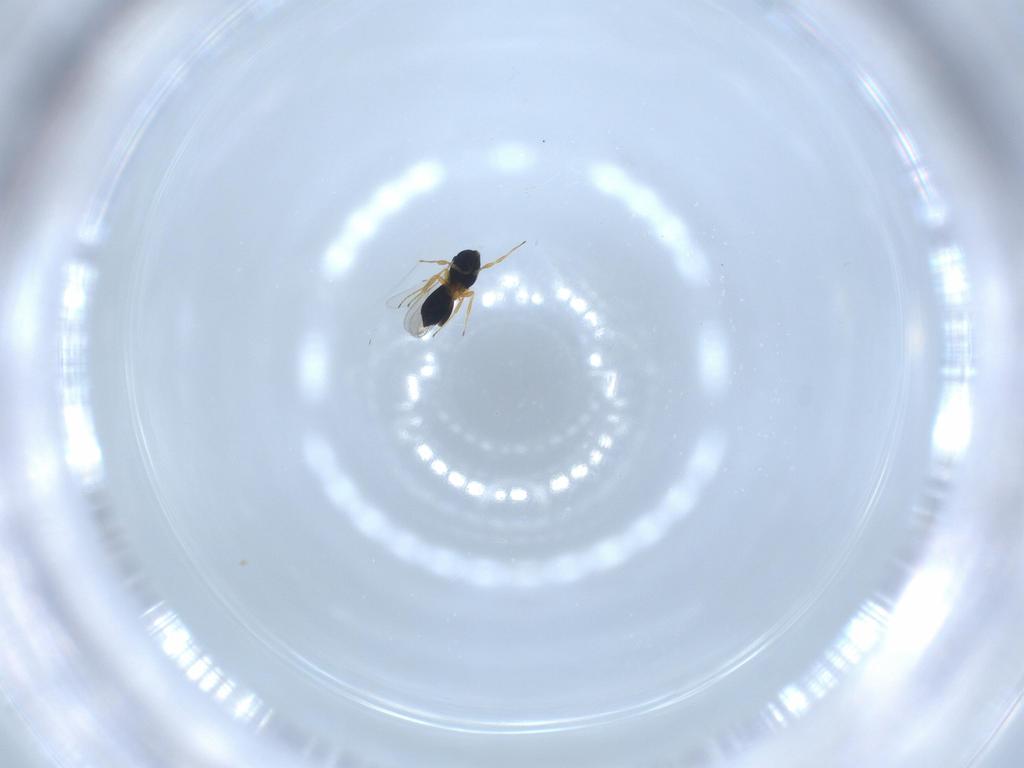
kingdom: Animalia
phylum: Arthropoda
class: Insecta
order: Hymenoptera
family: Scelionidae
